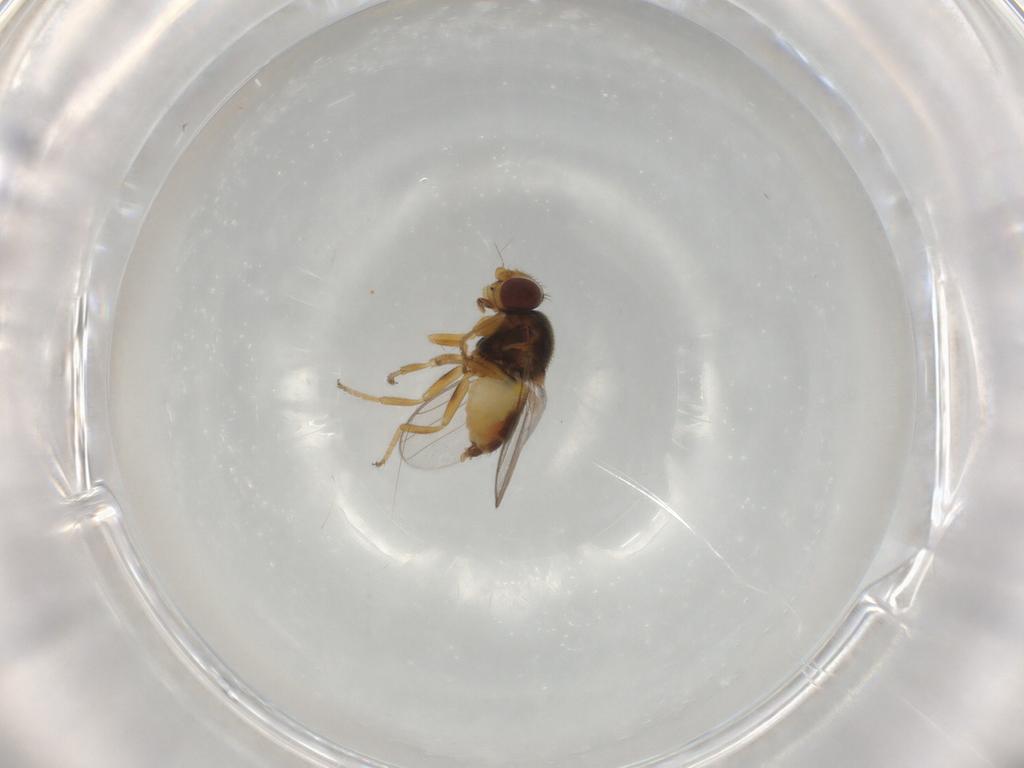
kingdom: Animalia
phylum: Arthropoda
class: Insecta
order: Diptera
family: Chloropidae
